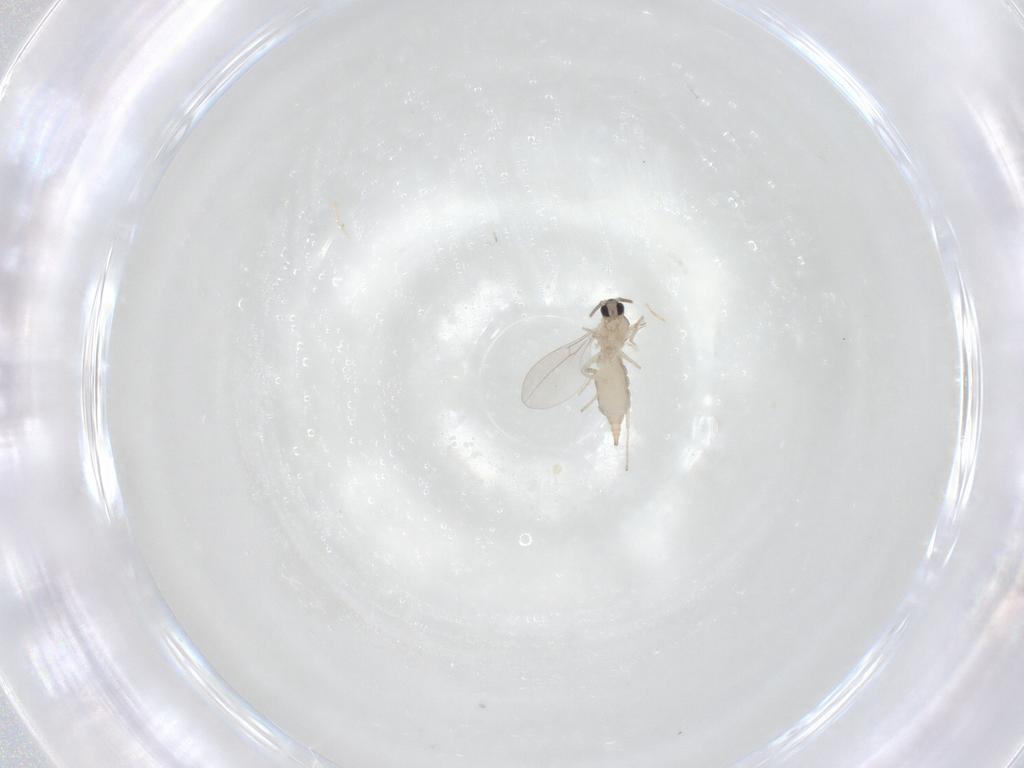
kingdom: Animalia
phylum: Arthropoda
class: Insecta
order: Diptera
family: Cecidomyiidae
